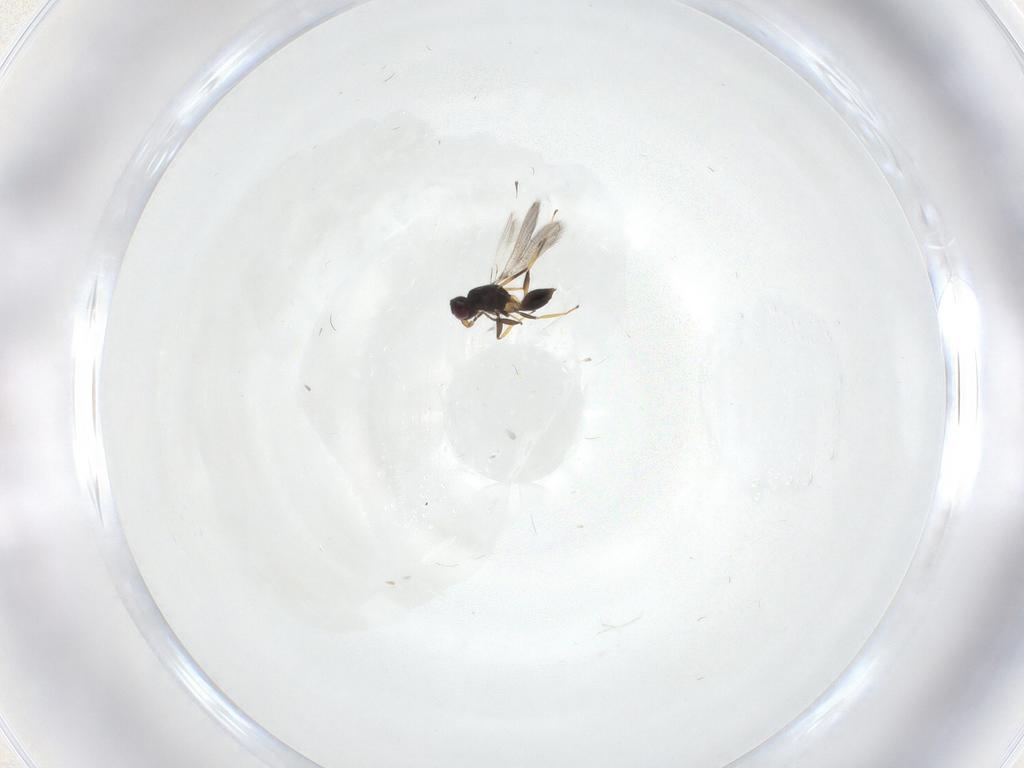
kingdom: Animalia
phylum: Arthropoda
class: Insecta
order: Hymenoptera
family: Mymaridae
